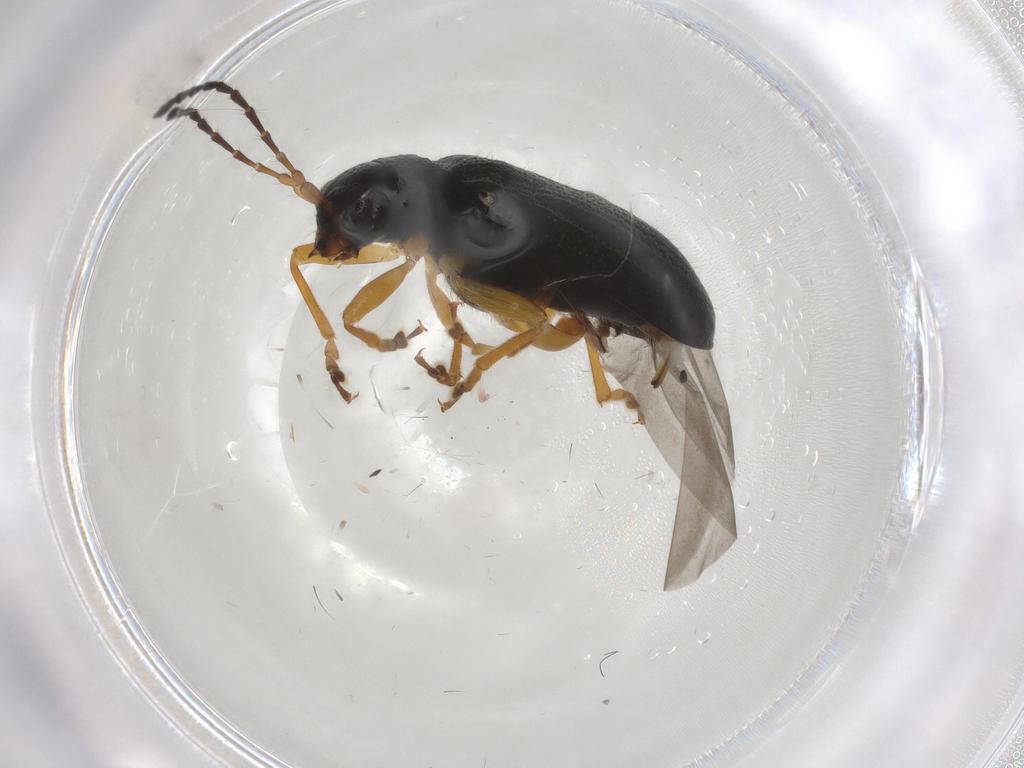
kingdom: Animalia
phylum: Arthropoda
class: Insecta
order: Coleoptera
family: Chrysomelidae
